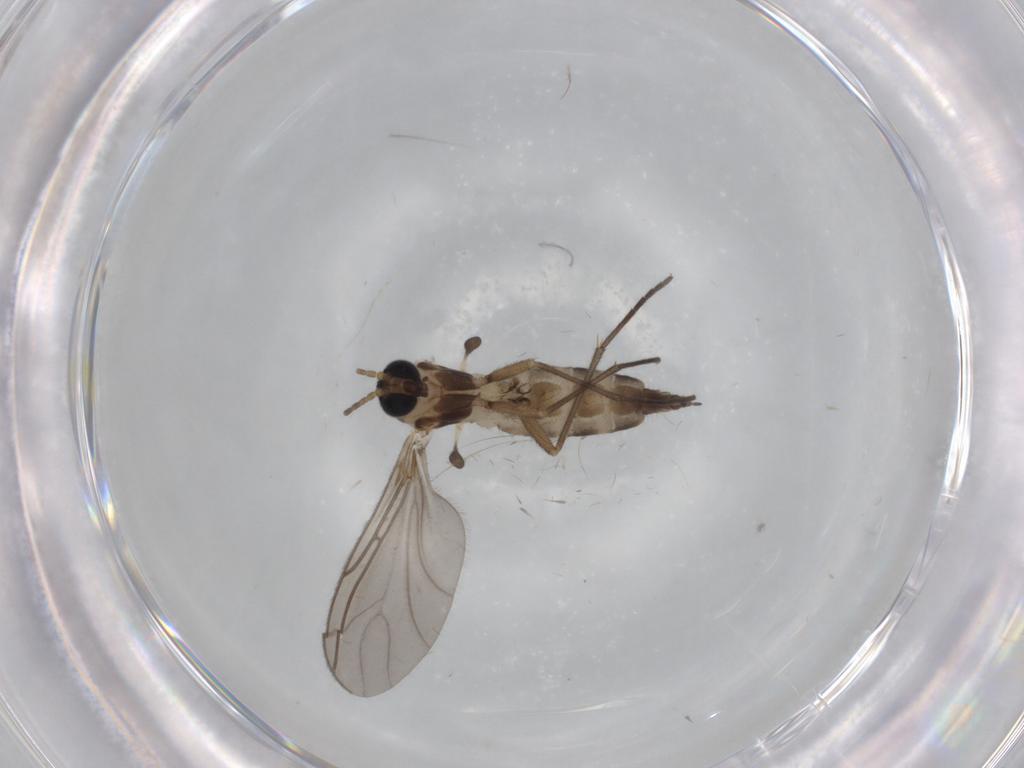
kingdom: Animalia
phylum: Arthropoda
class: Insecta
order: Diptera
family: Sciaridae
